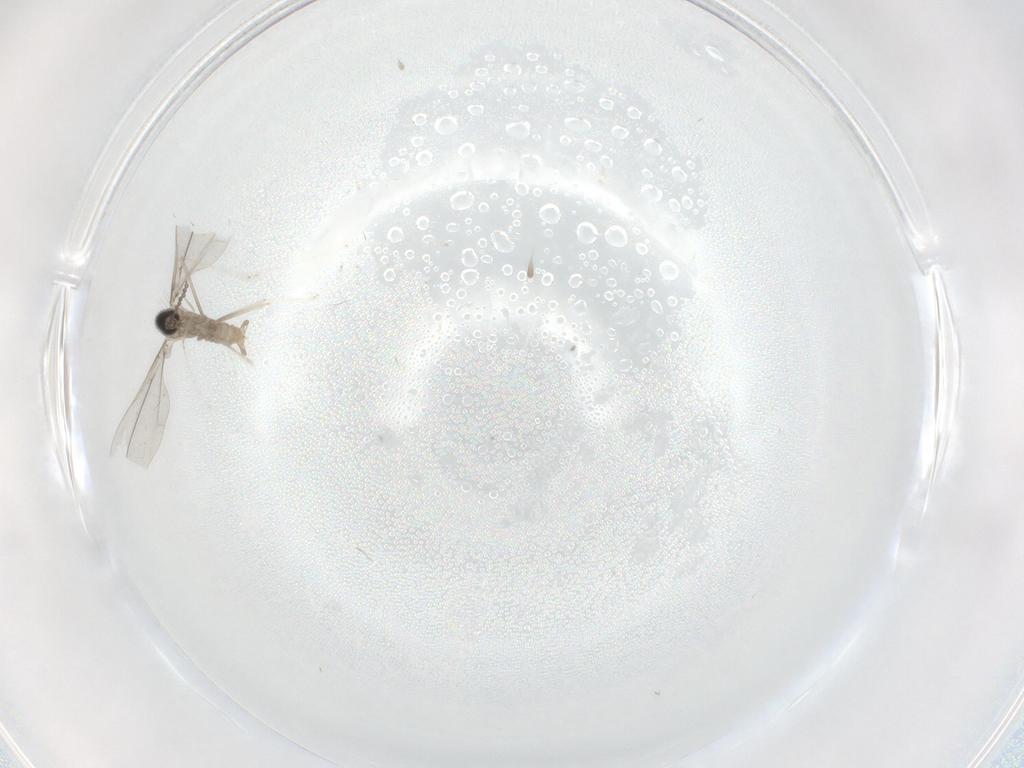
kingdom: Animalia
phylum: Arthropoda
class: Insecta
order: Diptera
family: Cecidomyiidae
